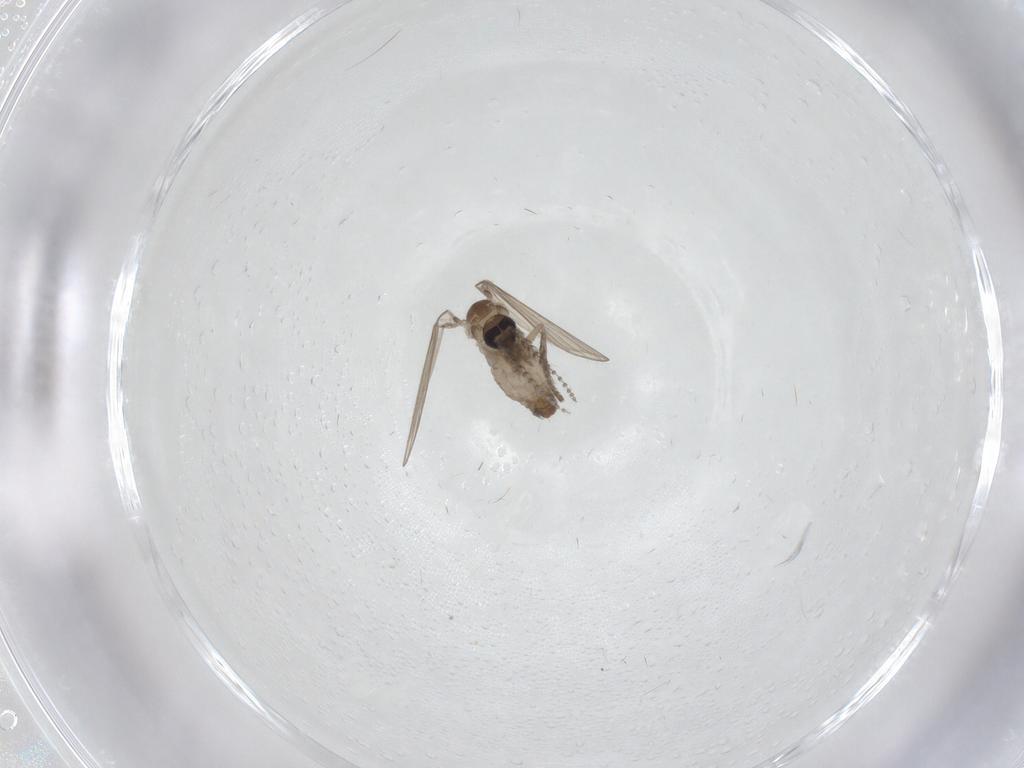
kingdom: Animalia
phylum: Arthropoda
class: Insecta
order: Diptera
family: Psychodidae
